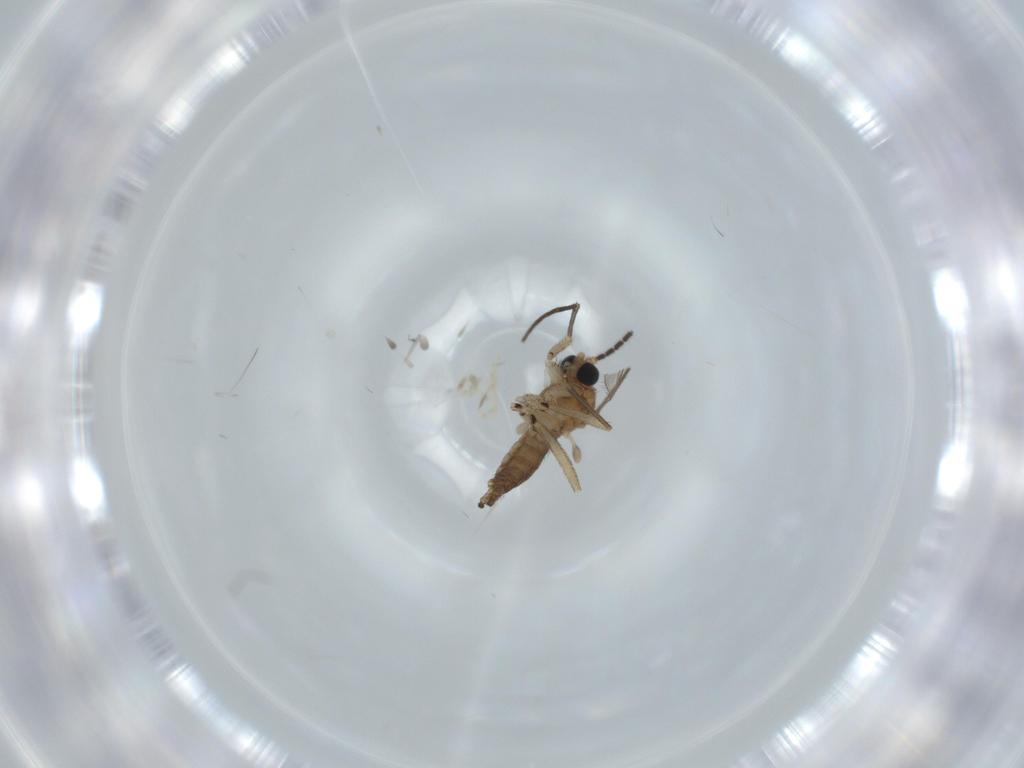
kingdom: Animalia
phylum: Arthropoda
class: Insecta
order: Diptera
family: Sciaridae
